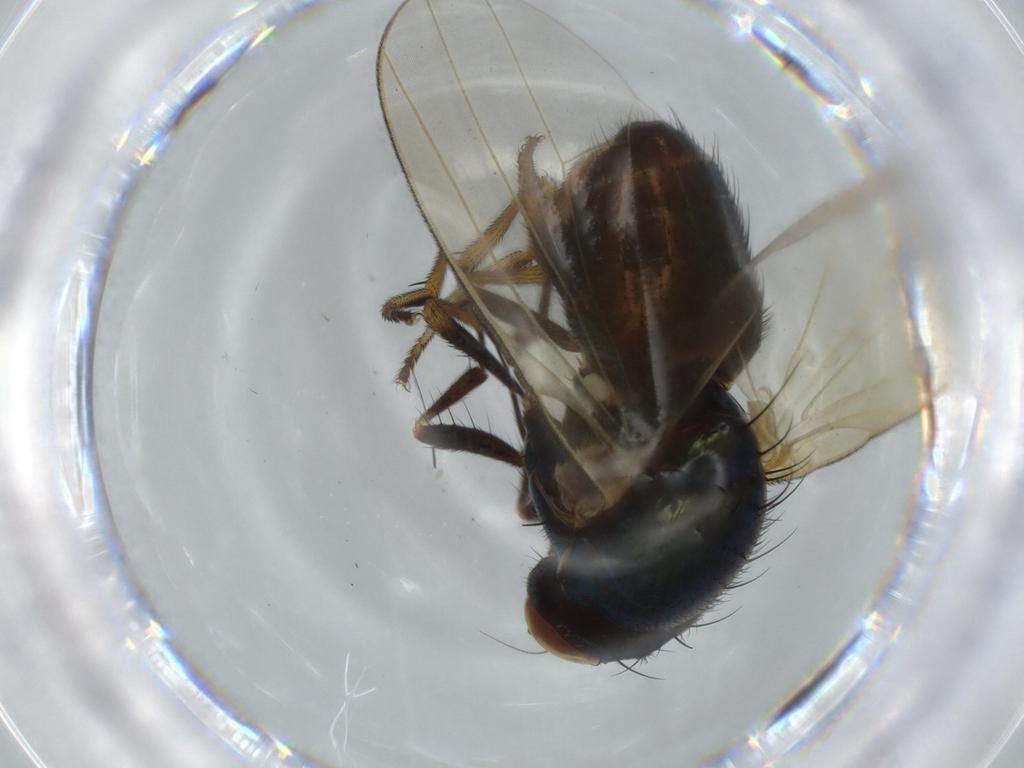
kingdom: Animalia
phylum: Arthropoda
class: Insecta
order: Diptera
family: Lauxaniidae
